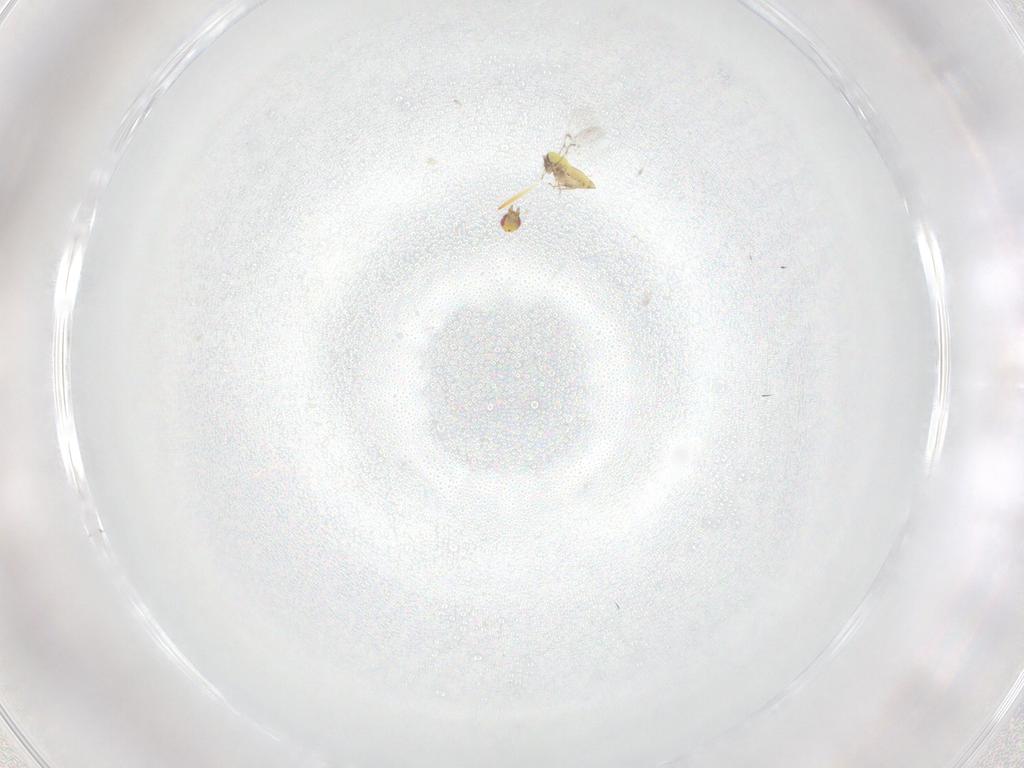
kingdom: Animalia
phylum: Arthropoda
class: Insecta
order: Hymenoptera
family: Trichogrammatidae
